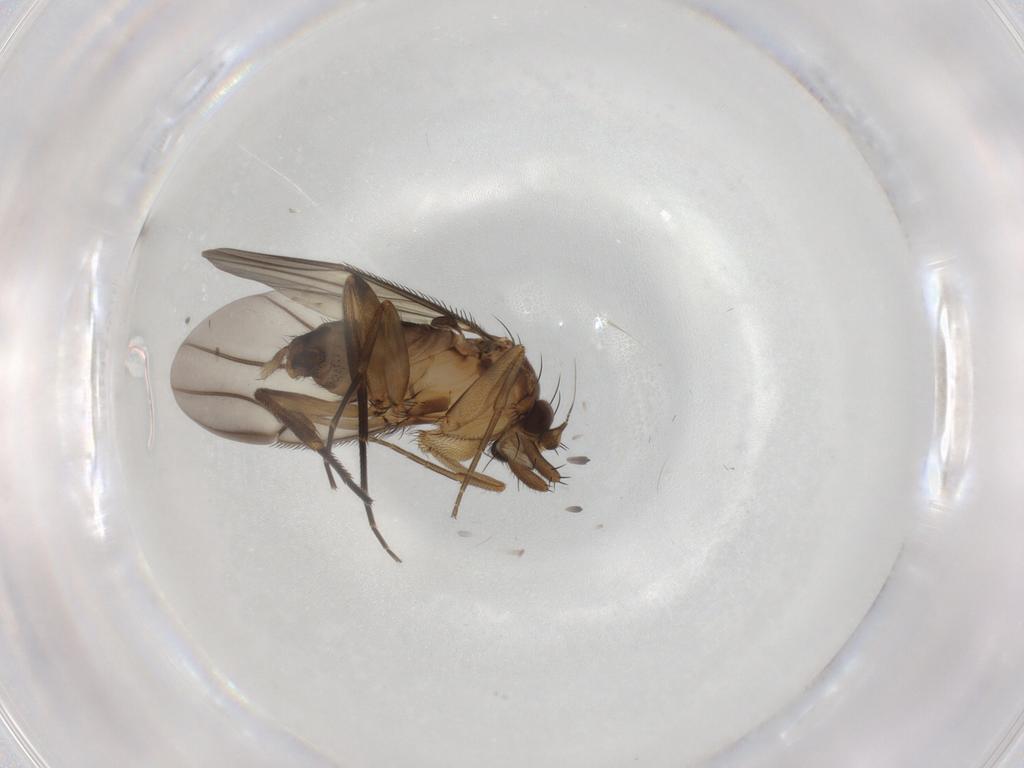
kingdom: Animalia
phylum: Arthropoda
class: Insecta
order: Diptera
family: Phoridae
